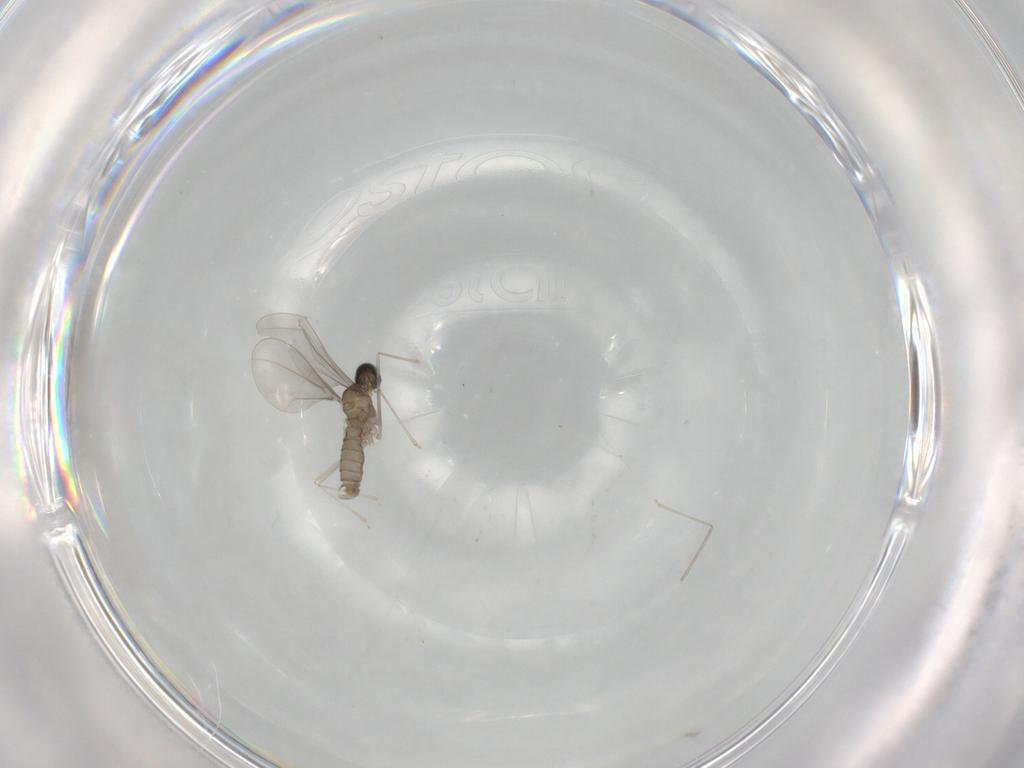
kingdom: Animalia
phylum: Arthropoda
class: Insecta
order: Diptera
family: Cecidomyiidae
